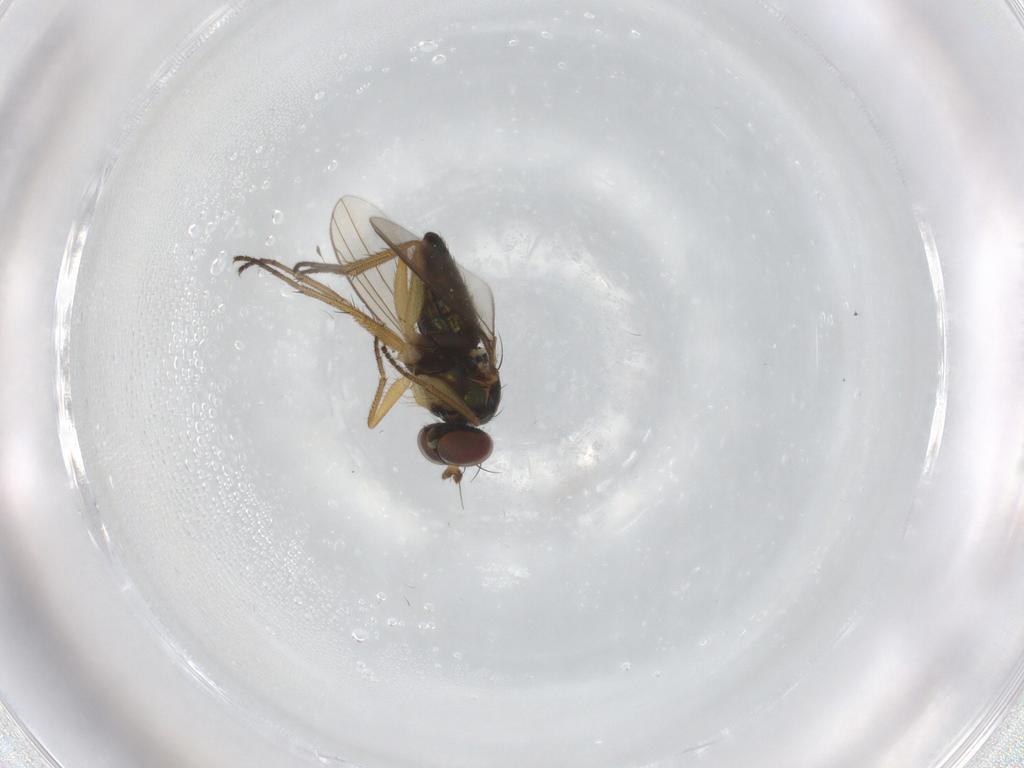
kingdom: Animalia
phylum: Arthropoda
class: Insecta
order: Diptera
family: Dolichopodidae
